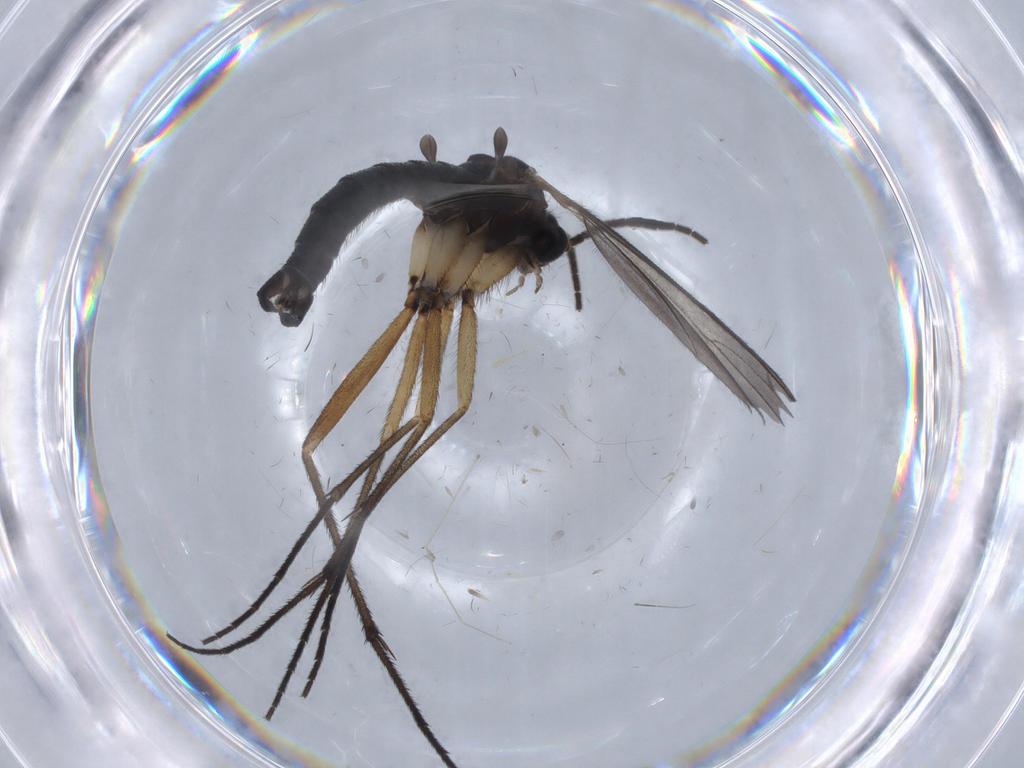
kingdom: Animalia
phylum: Arthropoda
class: Insecta
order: Diptera
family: Sciaridae
